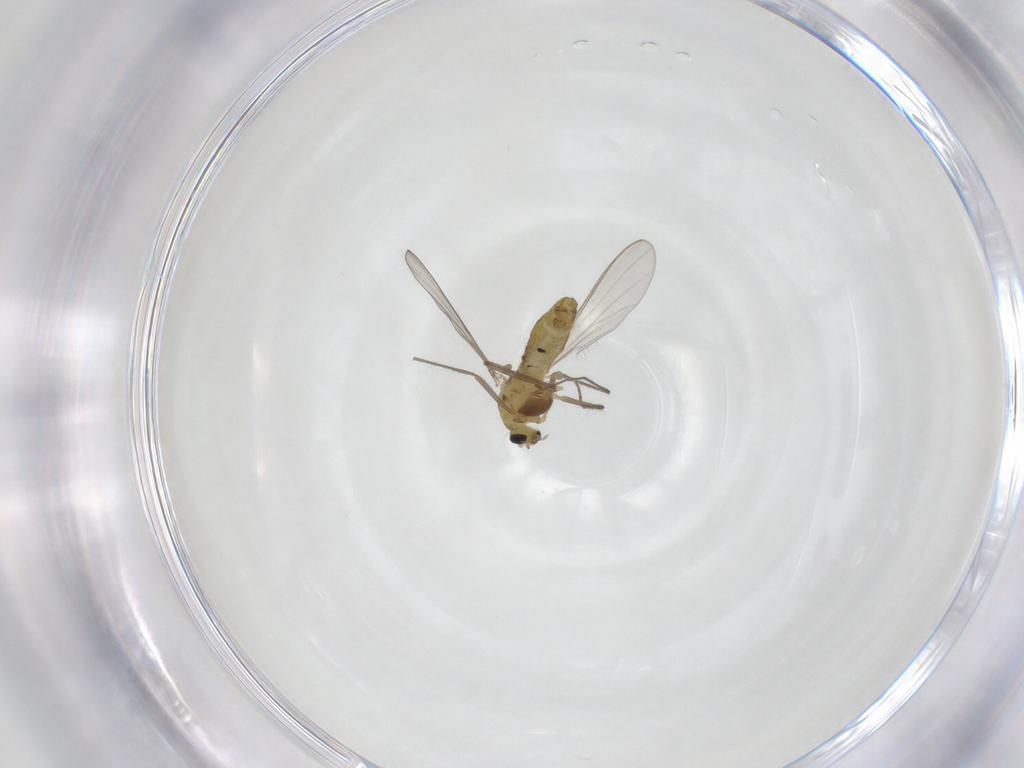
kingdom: Animalia
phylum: Arthropoda
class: Insecta
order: Diptera
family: Chironomidae
